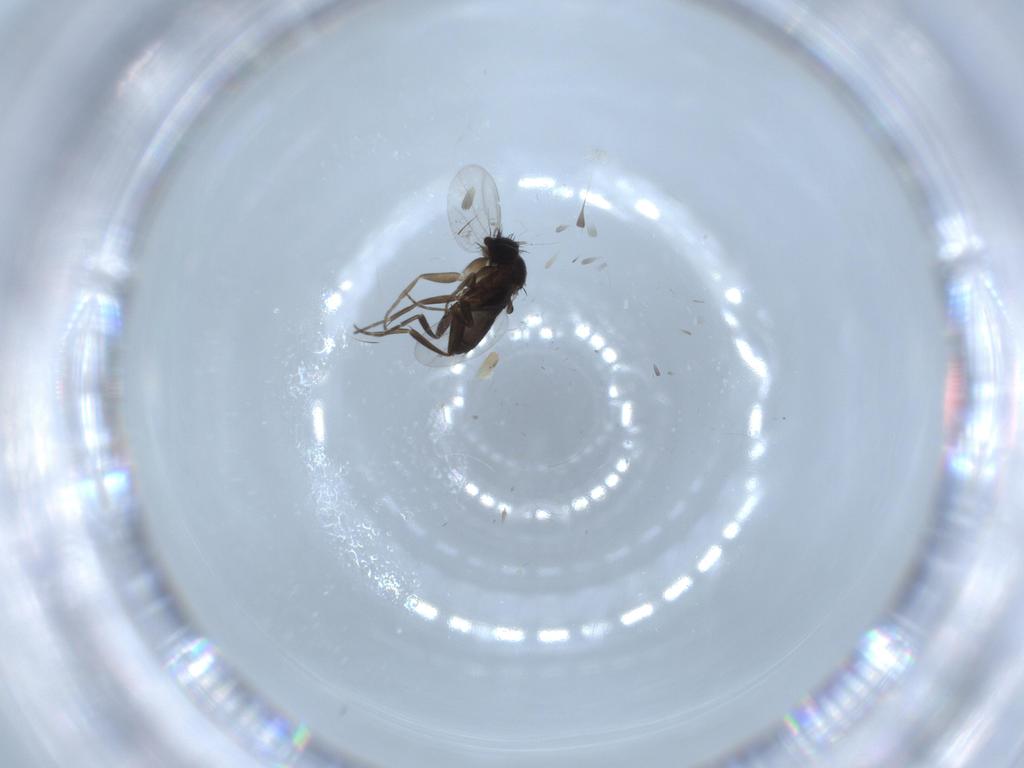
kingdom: Animalia
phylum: Arthropoda
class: Insecta
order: Diptera
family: Phoridae
